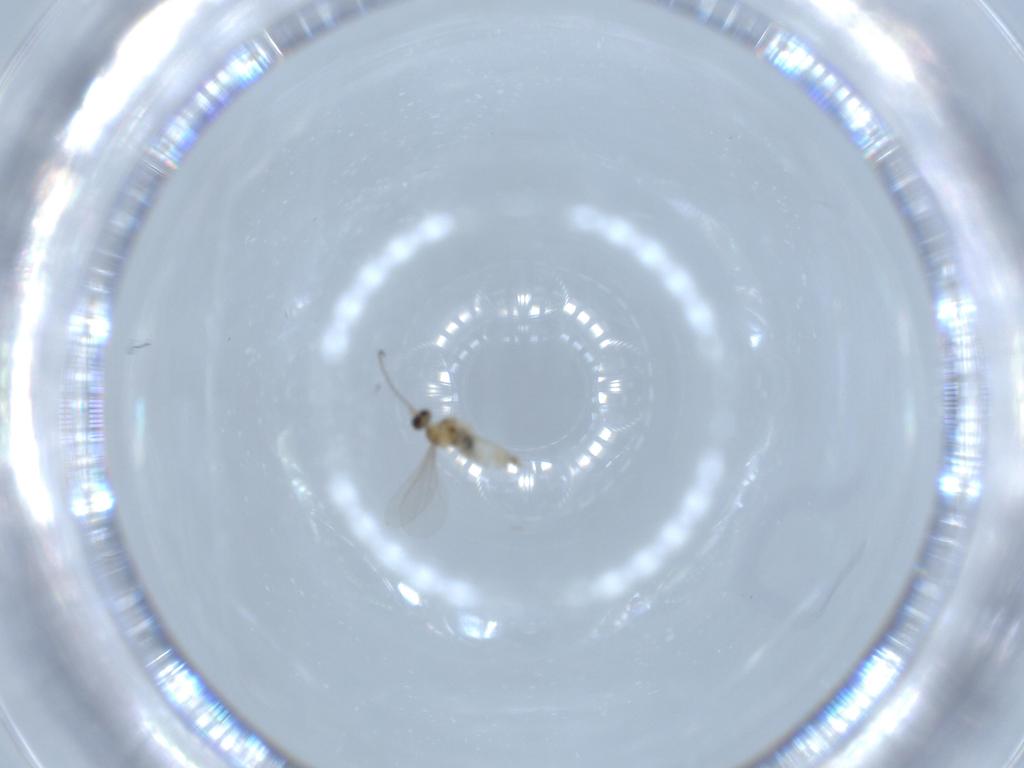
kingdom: Animalia
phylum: Arthropoda
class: Insecta
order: Diptera
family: Cecidomyiidae
